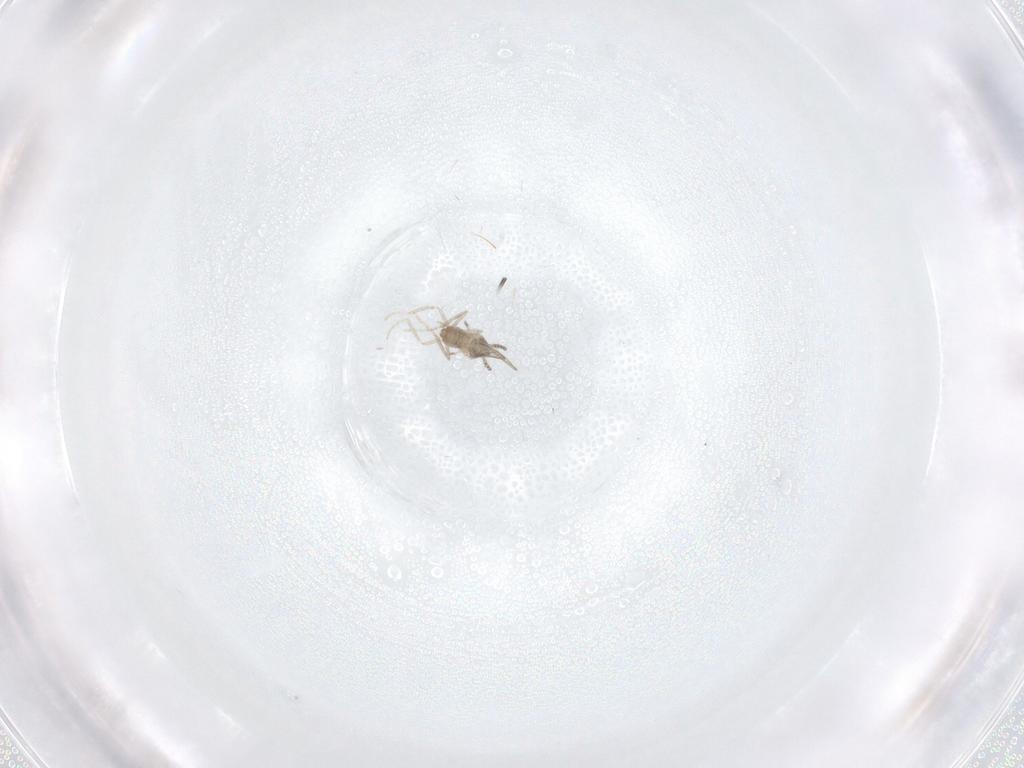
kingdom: Animalia
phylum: Arthropoda
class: Insecta
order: Diptera
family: Cecidomyiidae
